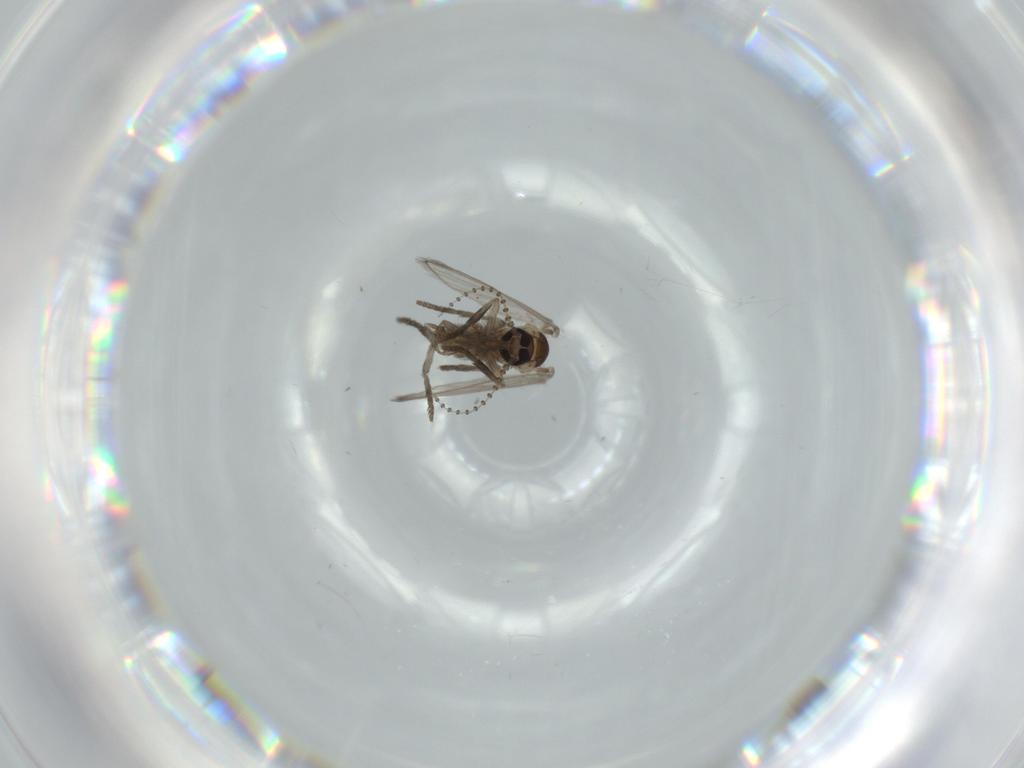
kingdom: Animalia
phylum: Arthropoda
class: Insecta
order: Diptera
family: Psychodidae
